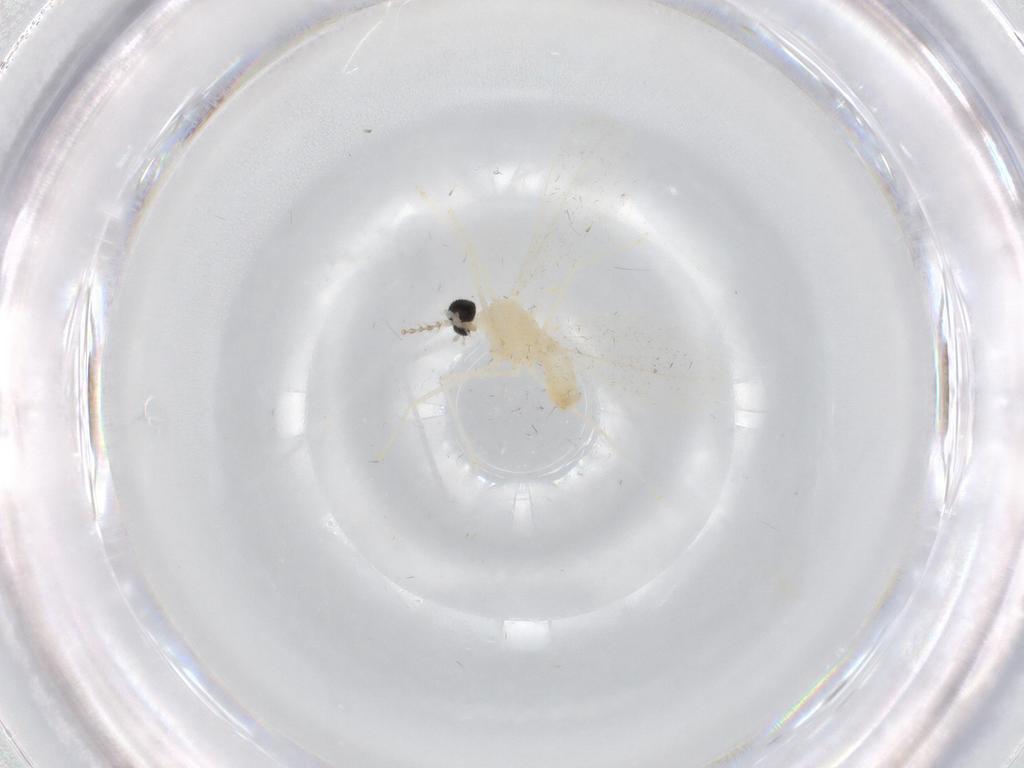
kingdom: Animalia
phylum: Arthropoda
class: Insecta
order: Diptera
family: Cecidomyiidae
